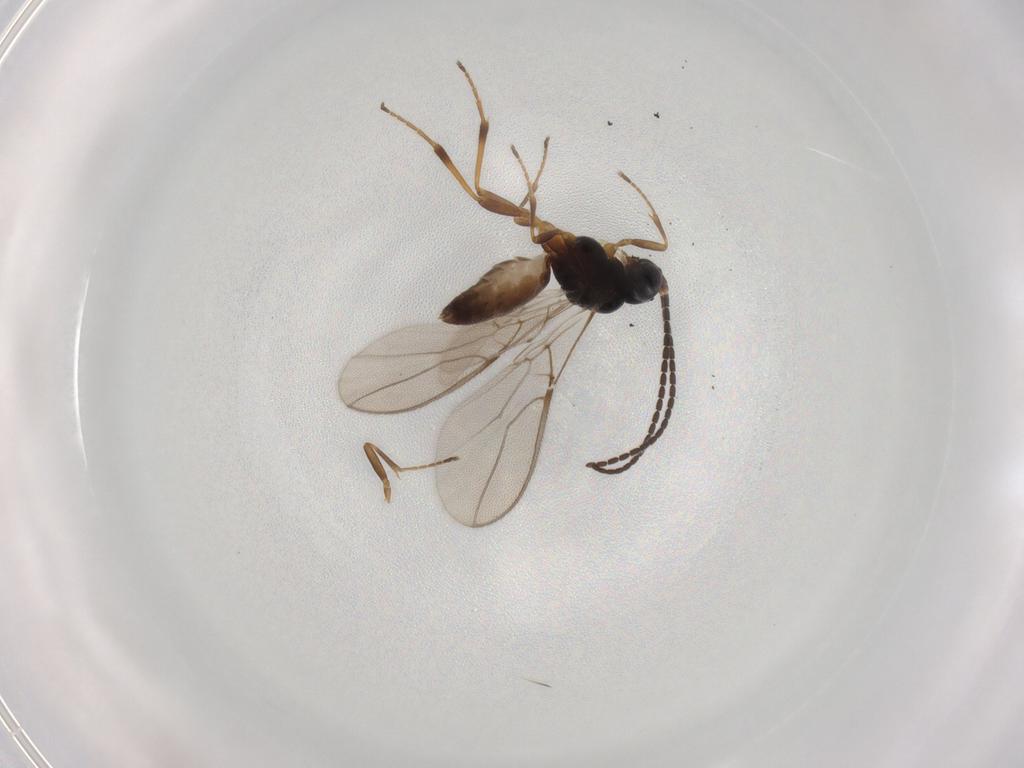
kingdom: Animalia
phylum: Arthropoda
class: Insecta
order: Hymenoptera
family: Braconidae
